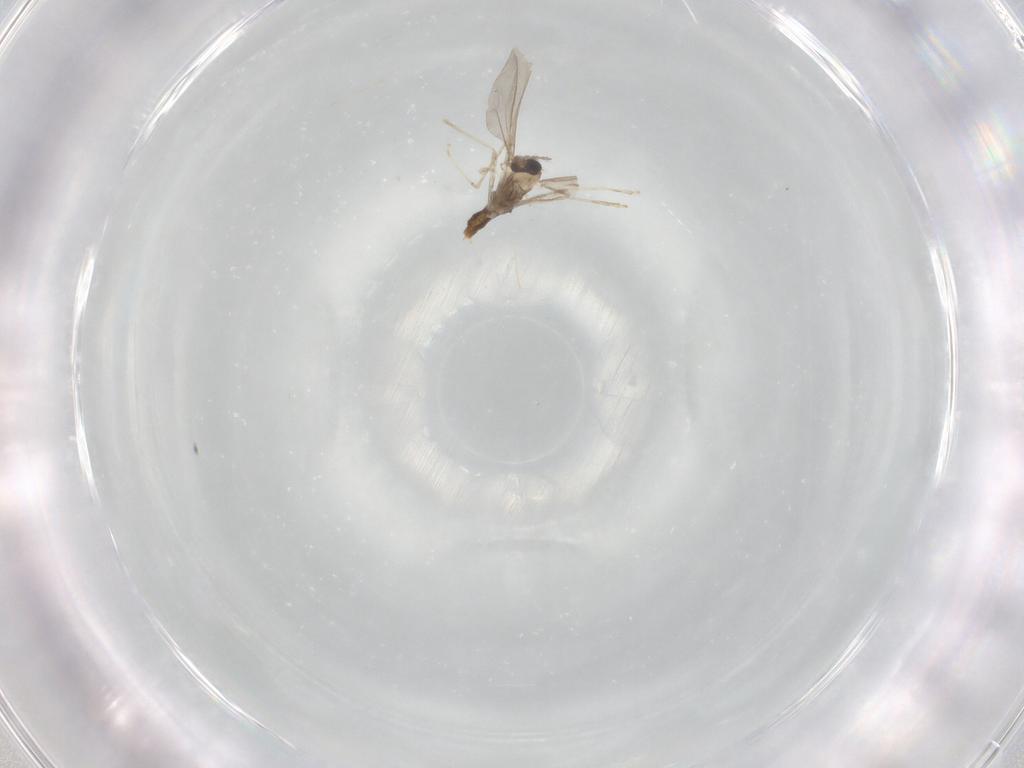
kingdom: Animalia
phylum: Arthropoda
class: Insecta
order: Diptera
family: Cecidomyiidae
